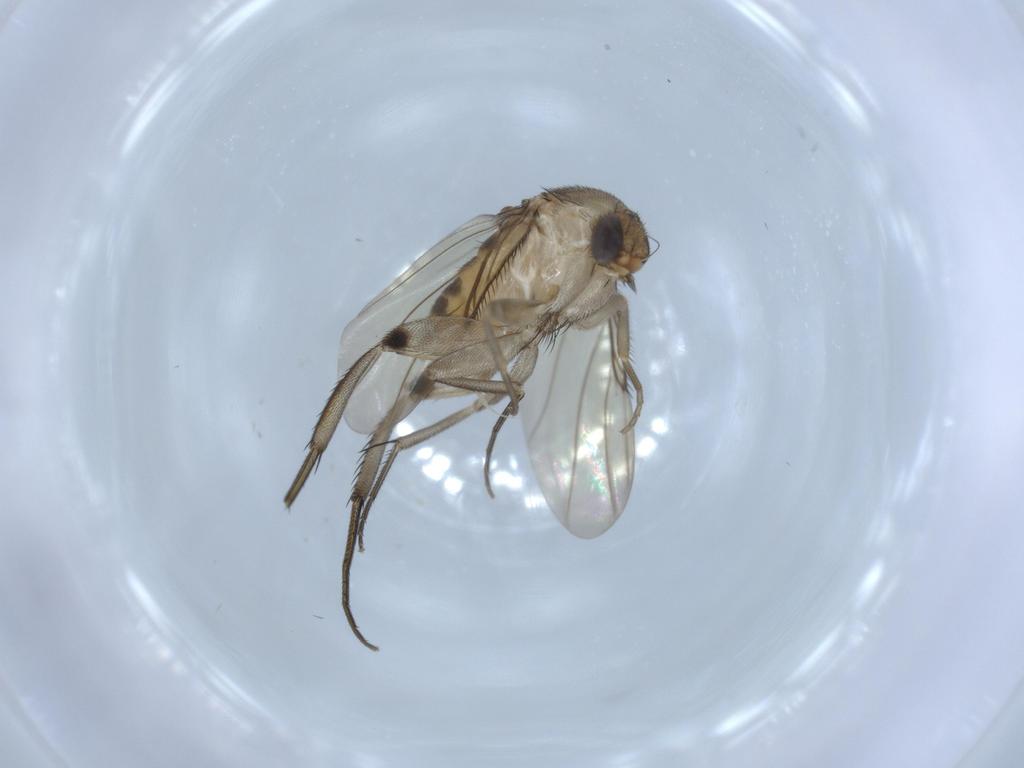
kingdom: Animalia
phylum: Arthropoda
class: Insecta
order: Diptera
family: Phoridae
